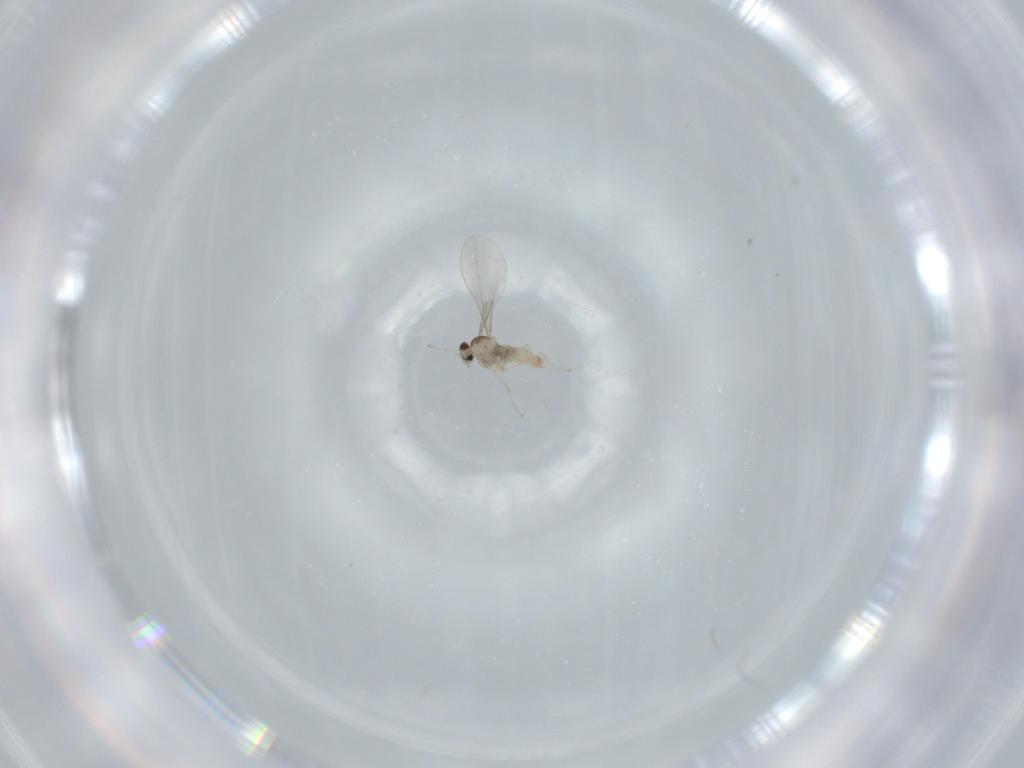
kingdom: Animalia
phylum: Arthropoda
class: Insecta
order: Diptera
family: Cecidomyiidae
